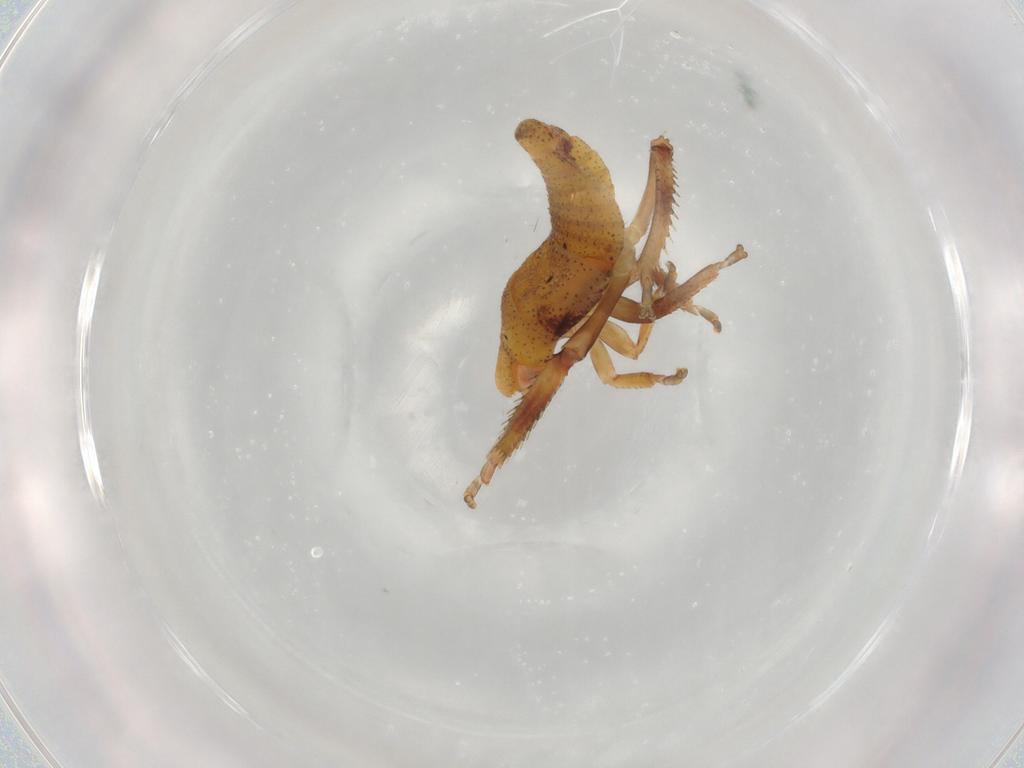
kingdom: Animalia
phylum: Arthropoda
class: Insecta
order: Hemiptera
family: Cicadellidae
